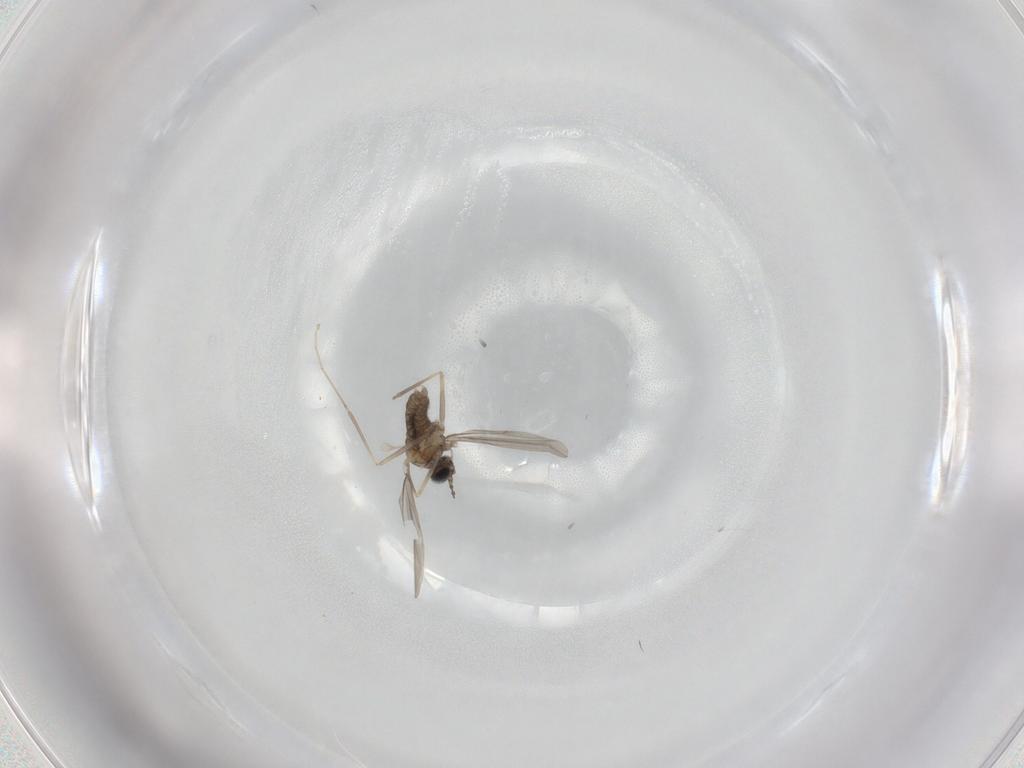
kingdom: Animalia
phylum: Arthropoda
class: Insecta
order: Diptera
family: Cecidomyiidae
